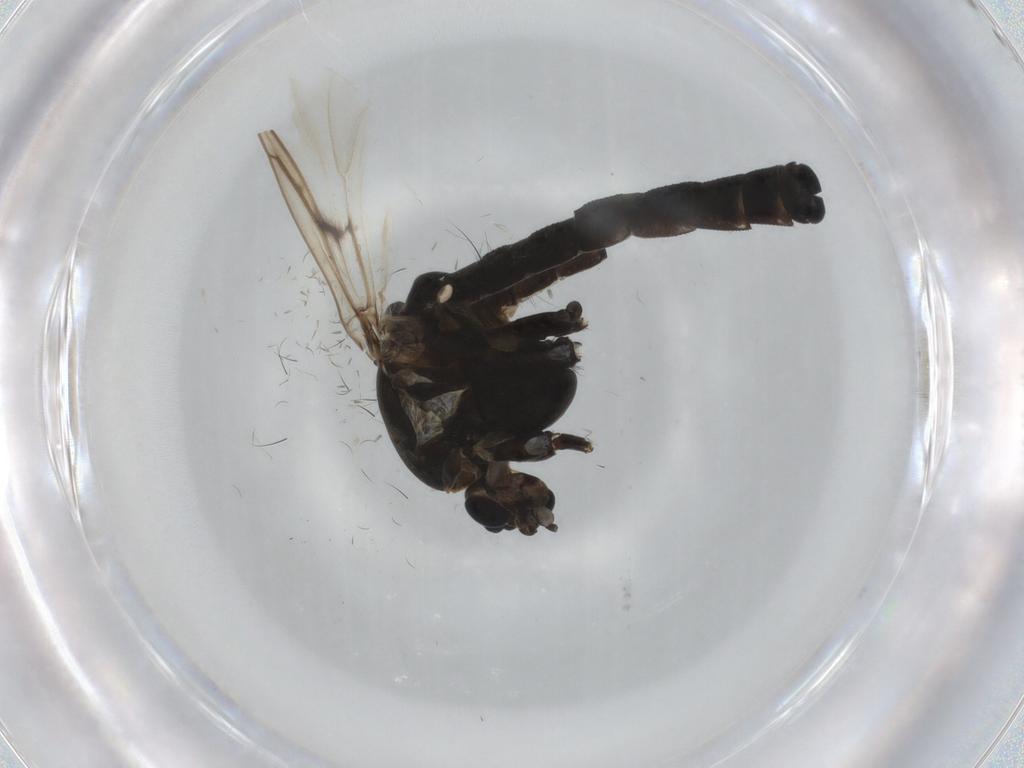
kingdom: Animalia
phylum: Arthropoda
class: Insecta
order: Diptera
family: Chironomidae
